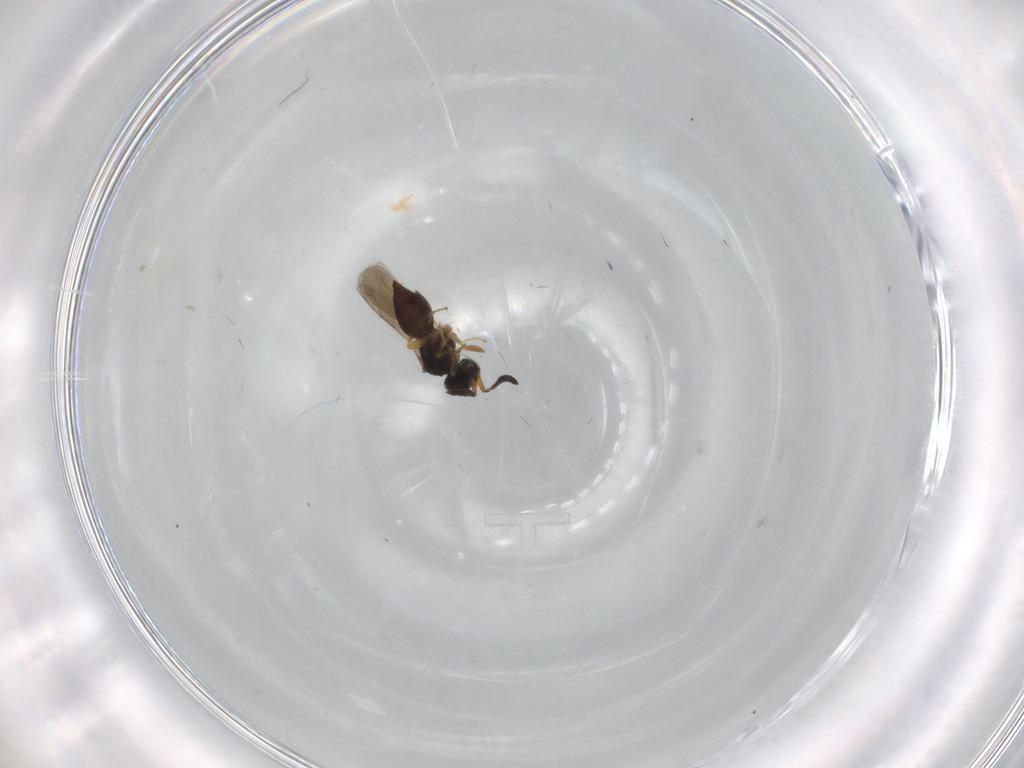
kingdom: Animalia
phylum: Arthropoda
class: Insecta
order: Hymenoptera
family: Ceraphronidae
